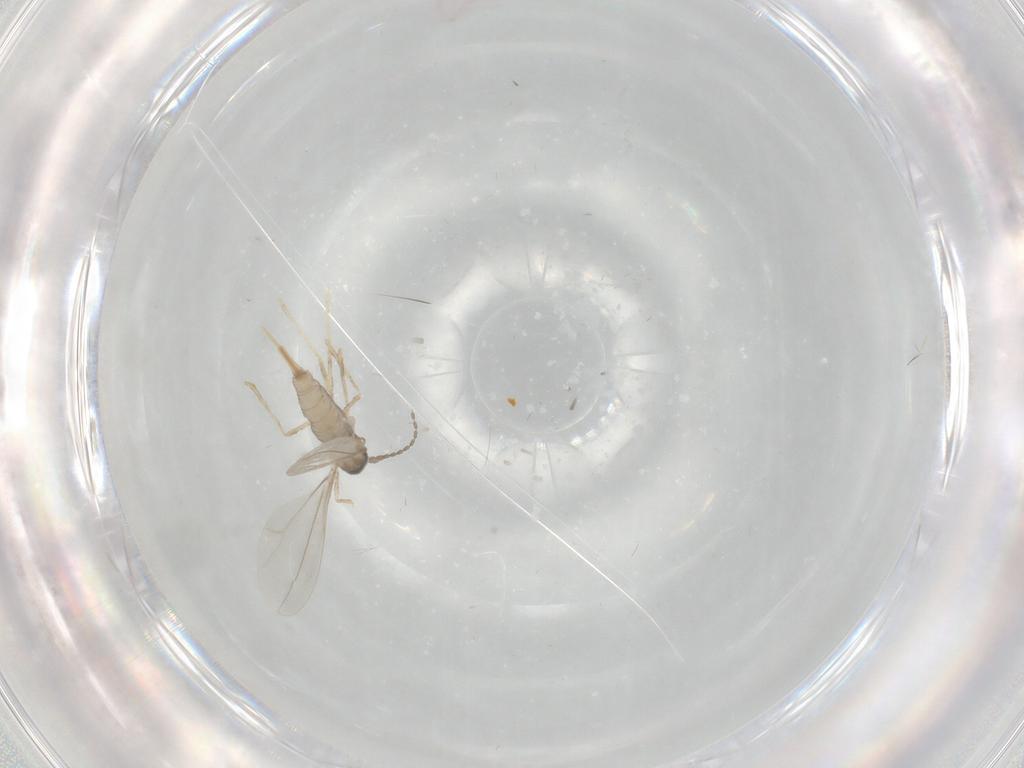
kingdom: Animalia
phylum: Arthropoda
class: Insecta
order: Diptera
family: Cecidomyiidae
